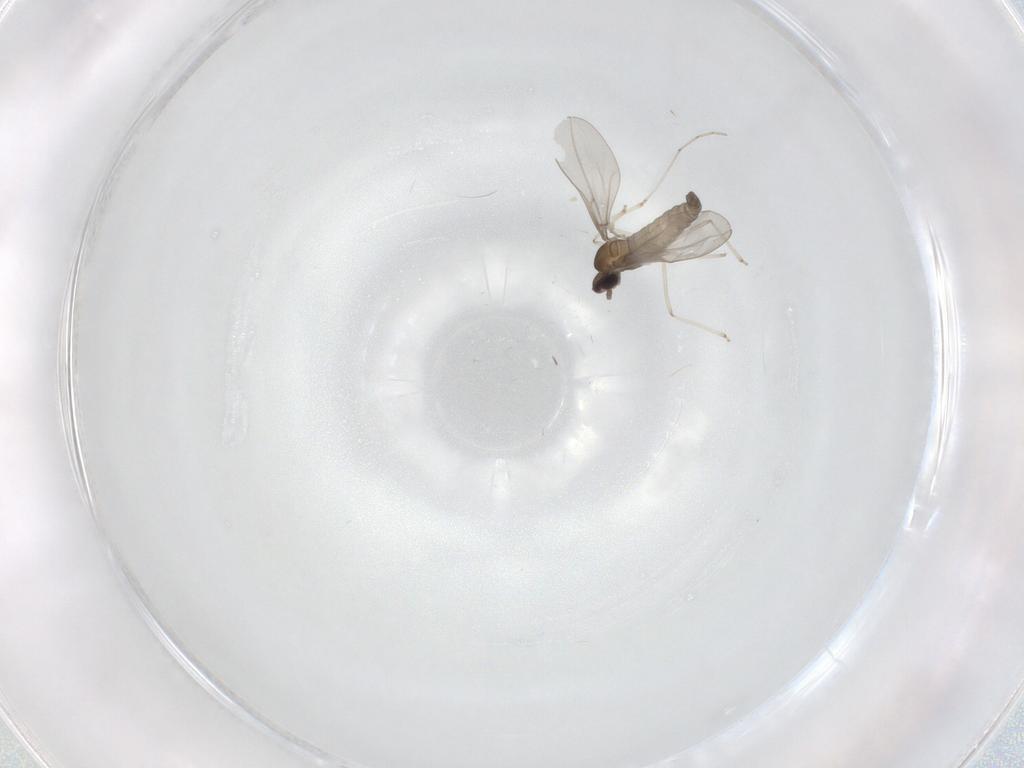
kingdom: Animalia
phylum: Arthropoda
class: Insecta
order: Diptera
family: Cecidomyiidae
